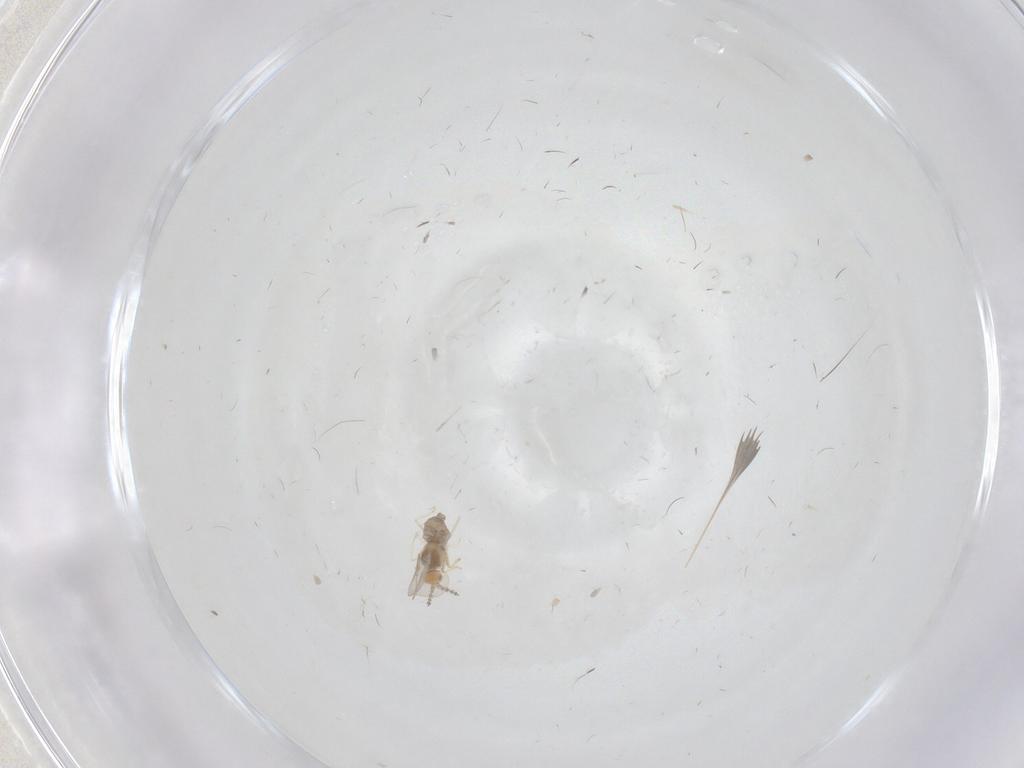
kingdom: Animalia
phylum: Arthropoda
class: Insecta
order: Diptera
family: Cecidomyiidae
